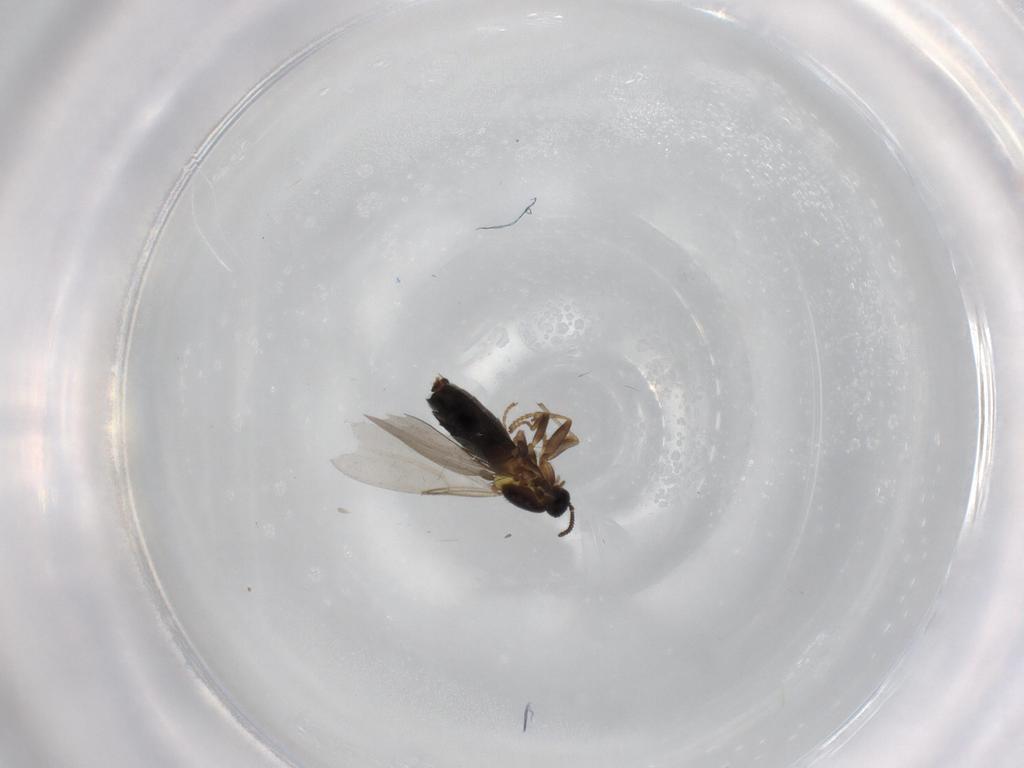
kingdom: Animalia
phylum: Arthropoda
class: Insecta
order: Diptera
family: Scatopsidae
